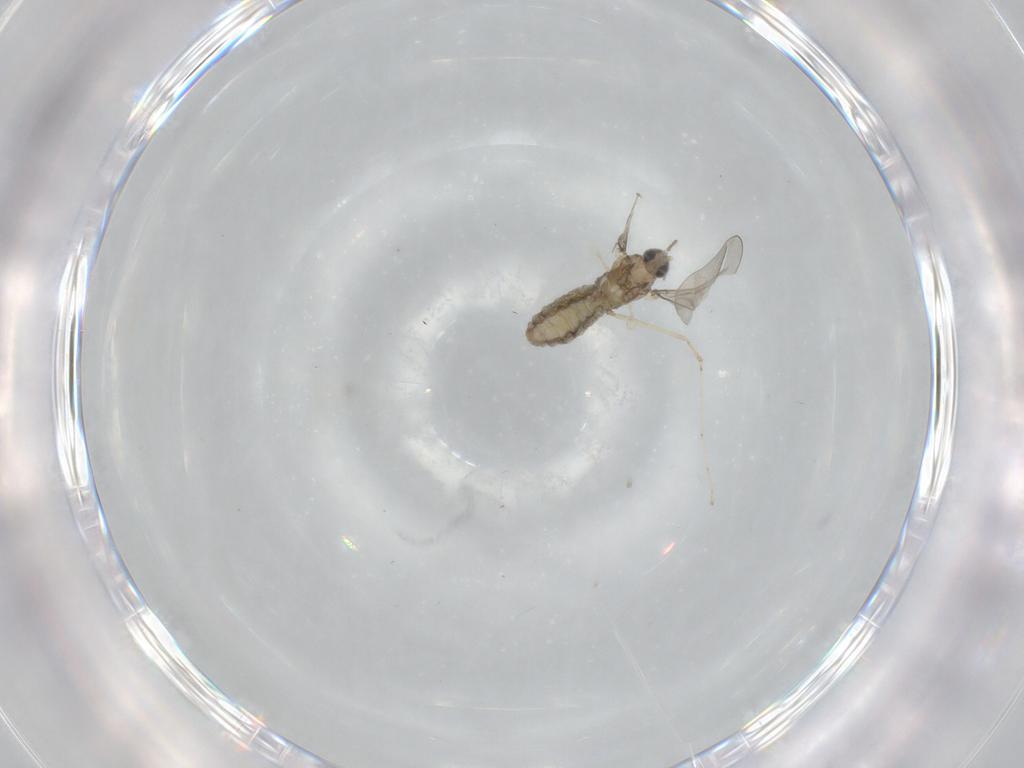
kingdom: Animalia
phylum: Arthropoda
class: Insecta
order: Diptera
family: Cecidomyiidae
